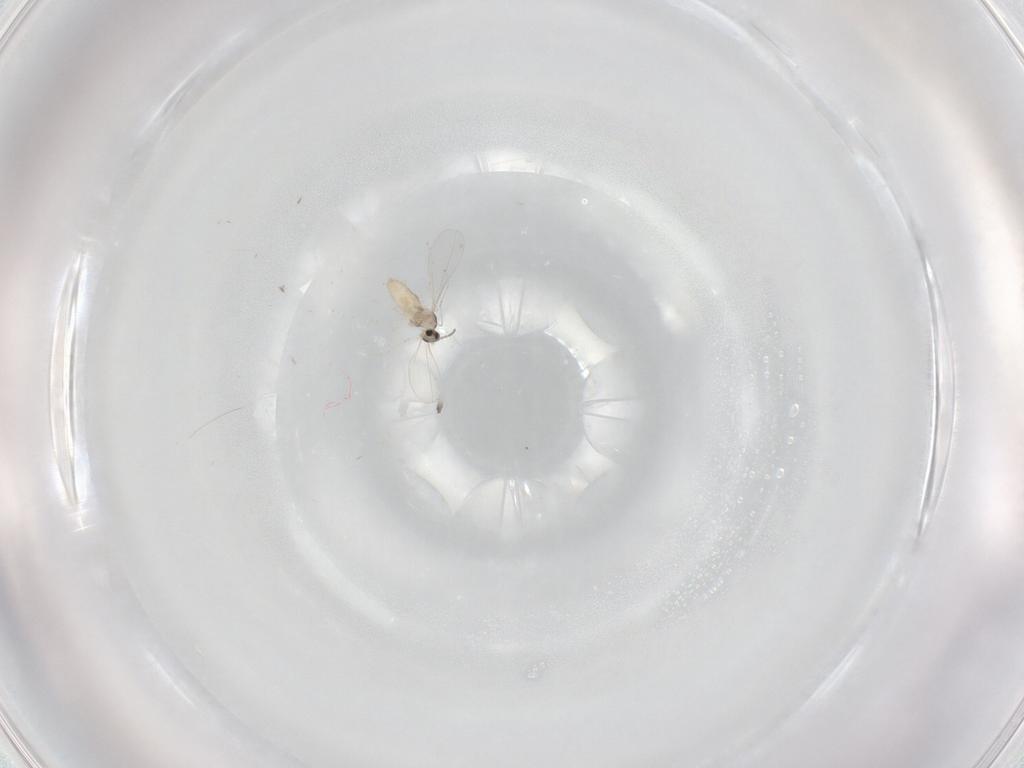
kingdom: Animalia
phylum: Arthropoda
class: Insecta
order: Diptera
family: Cecidomyiidae
